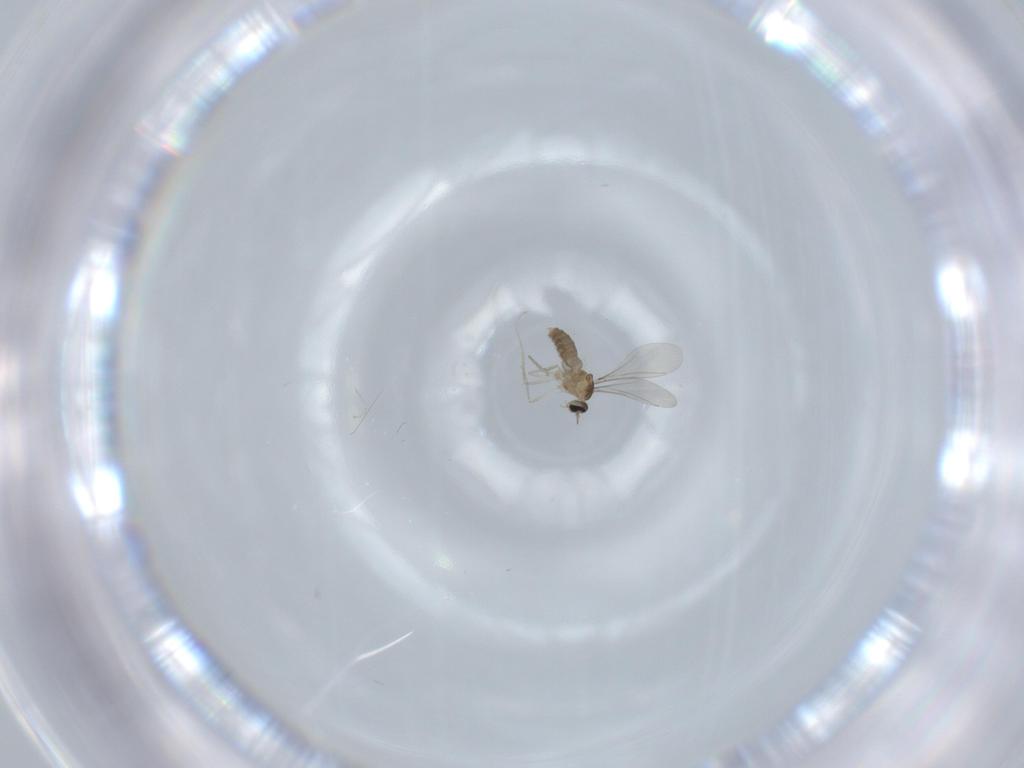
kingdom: Animalia
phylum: Arthropoda
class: Insecta
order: Diptera
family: Cecidomyiidae
